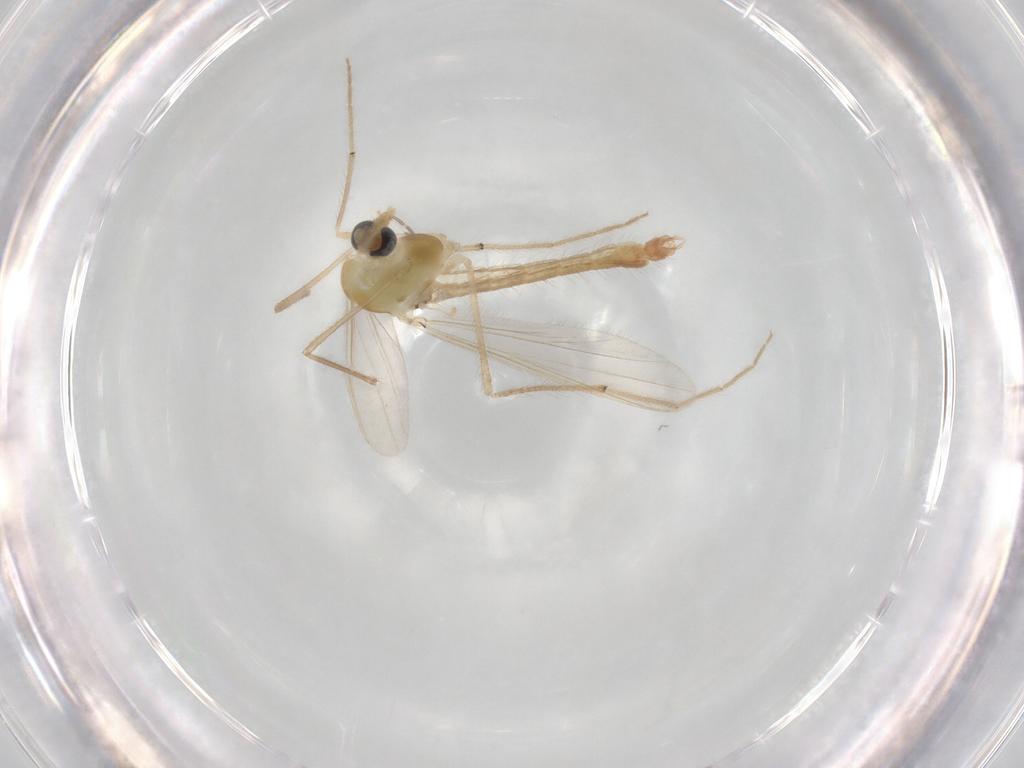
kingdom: Animalia
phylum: Arthropoda
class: Insecta
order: Diptera
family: Chironomidae
